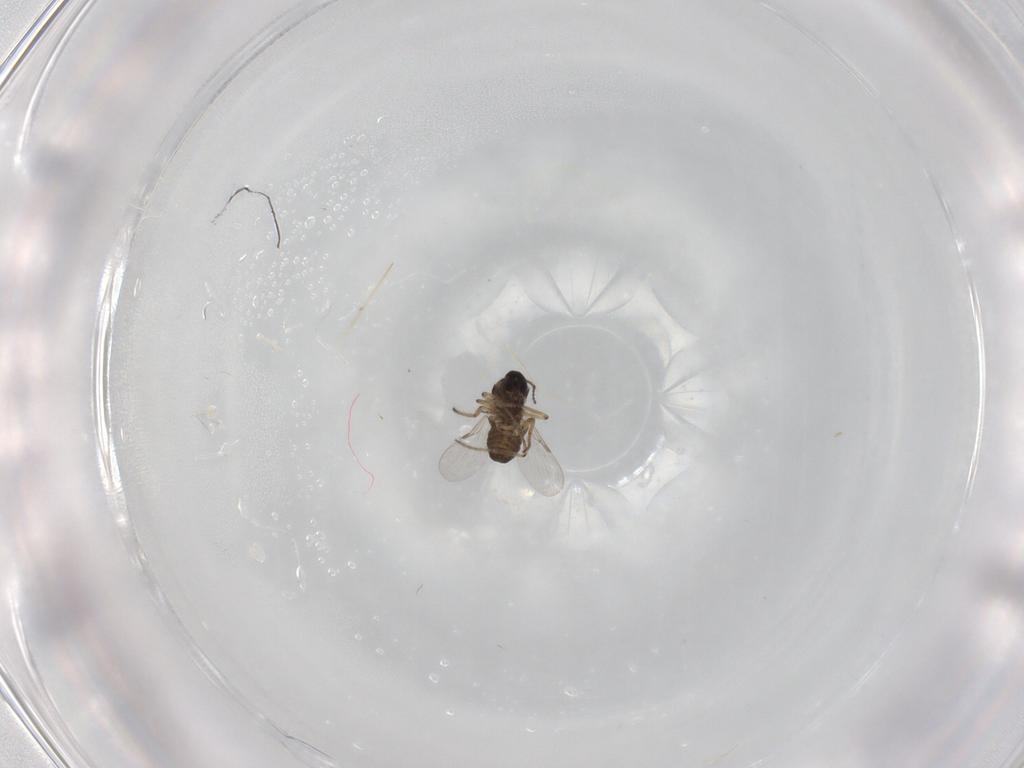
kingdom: Animalia
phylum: Arthropoda
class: Insecta
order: Diptera
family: Ceratopogonidae
